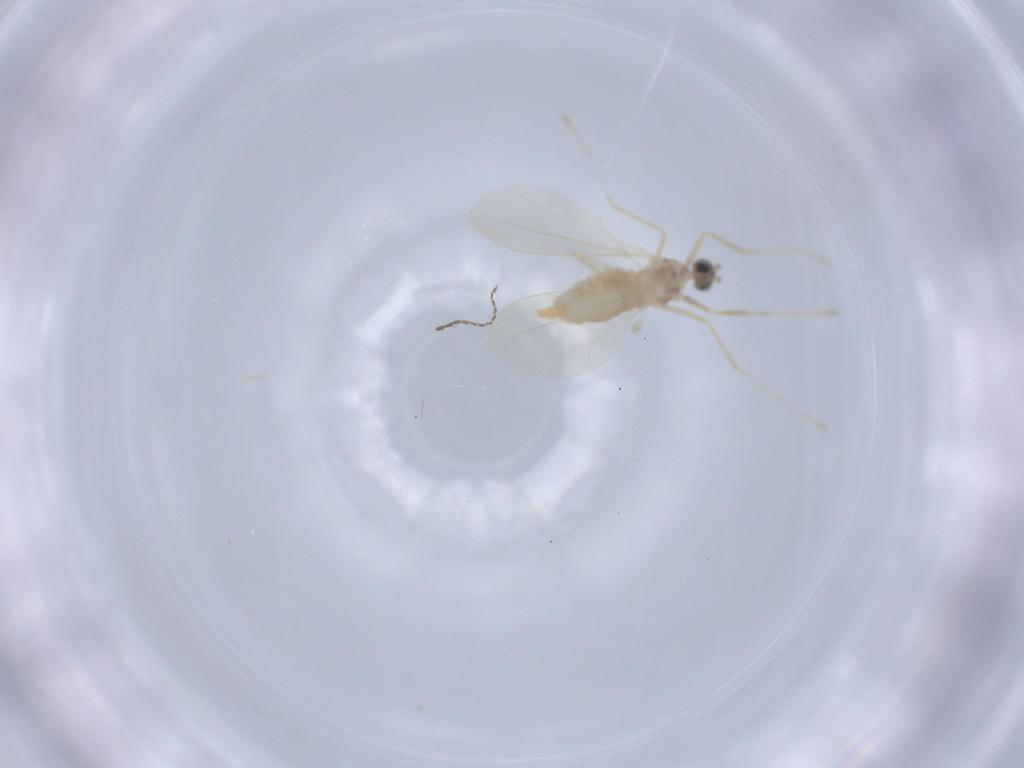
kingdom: Animalia
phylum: Arthropoda
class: Insecta
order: Diptera
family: Cecidomyiidae
